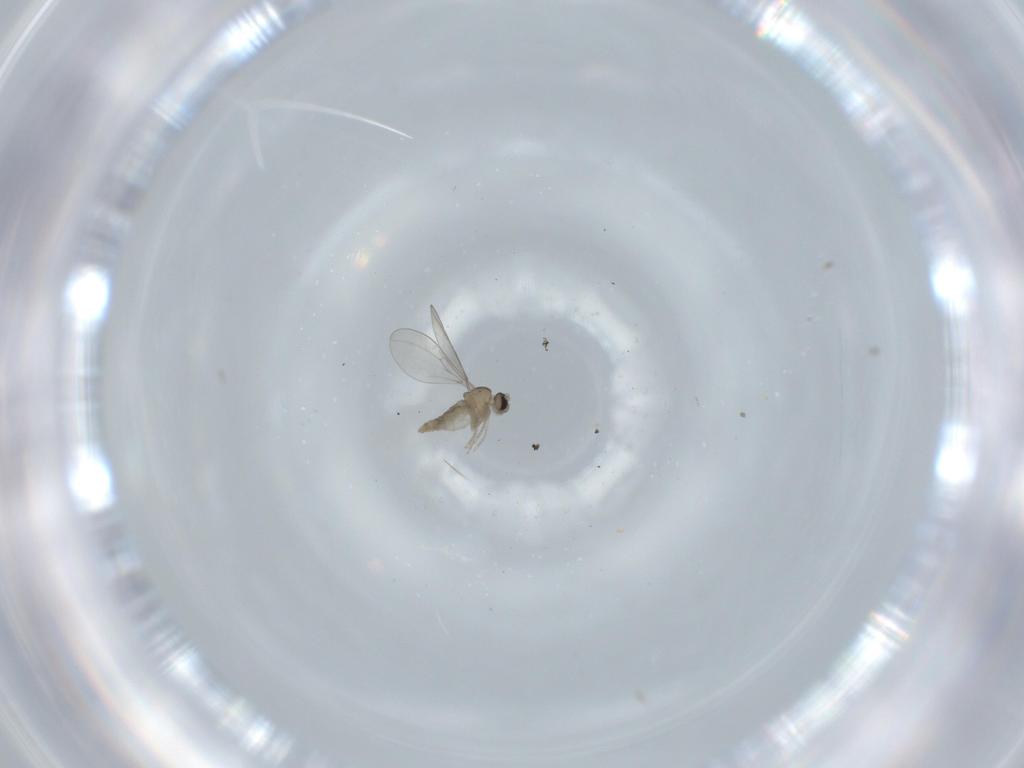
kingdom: Animalia
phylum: Arthropoda
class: Insecta
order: Diptera
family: Cecidomyiidae
